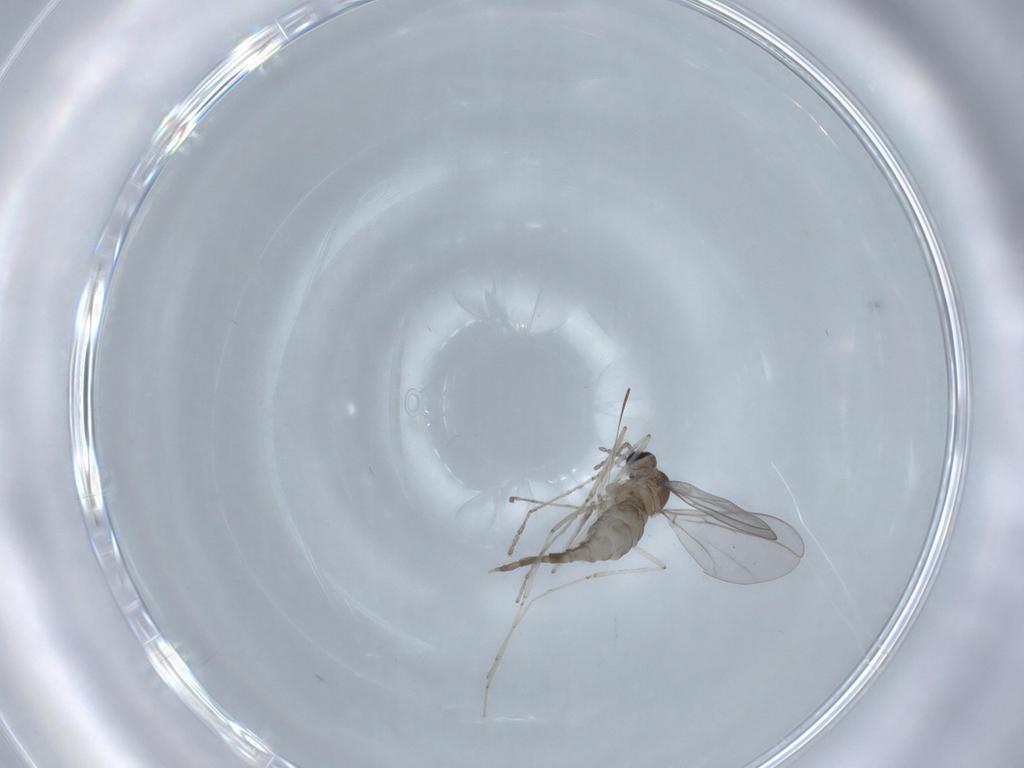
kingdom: Animalia
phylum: Arthropoda
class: Insecta
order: Diptera
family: Cecidomyiidae
